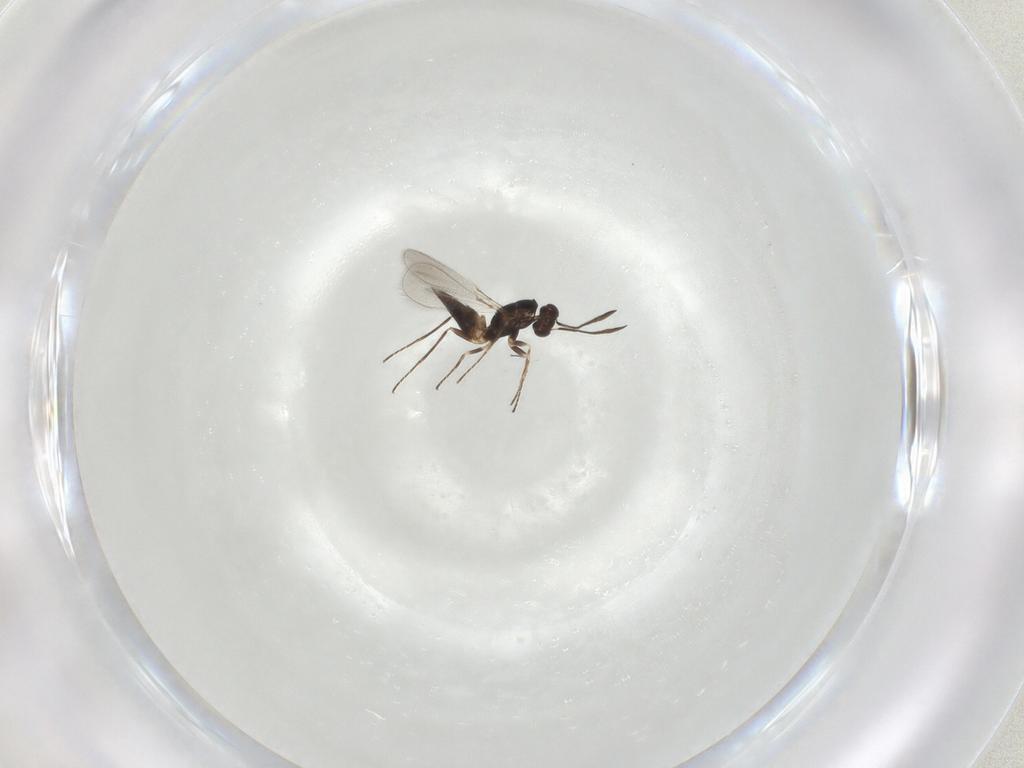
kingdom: Animalia
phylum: Arthropoda
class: Insecta
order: Hymenoptera
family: Mymaridae
